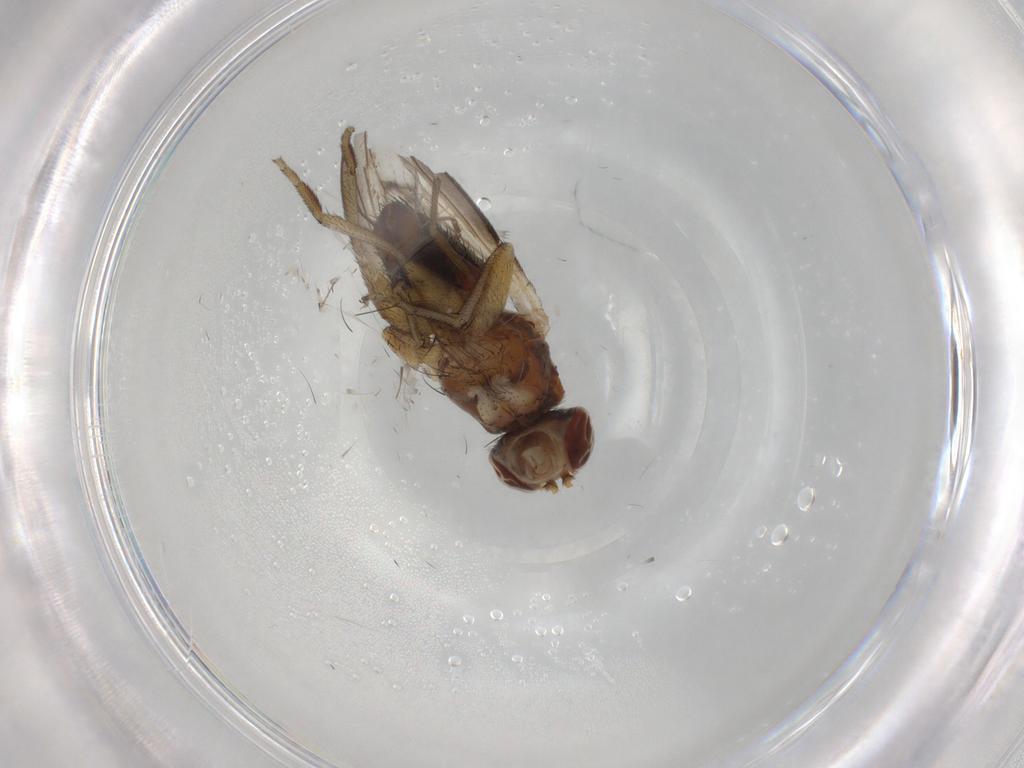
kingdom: Animalia
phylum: Arthropoda
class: Insecta
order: Diptera
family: Heleomyzidae
